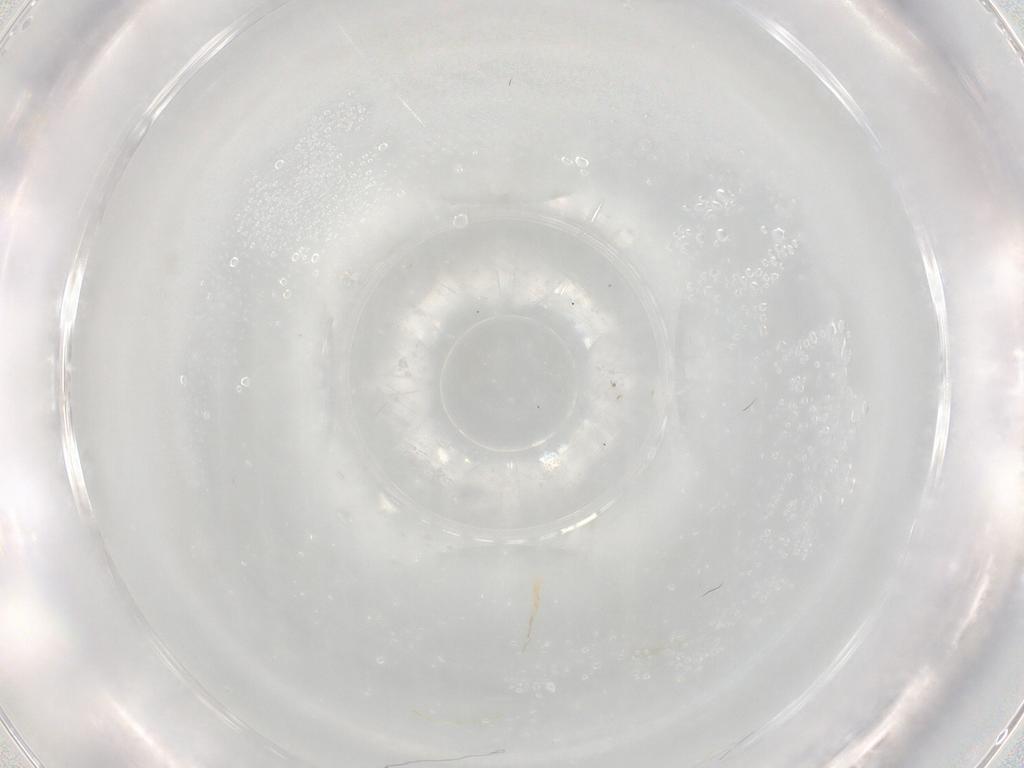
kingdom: Animalia
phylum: Arthropoda
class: Insecta
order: Hymenoptera
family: Scelionidae
